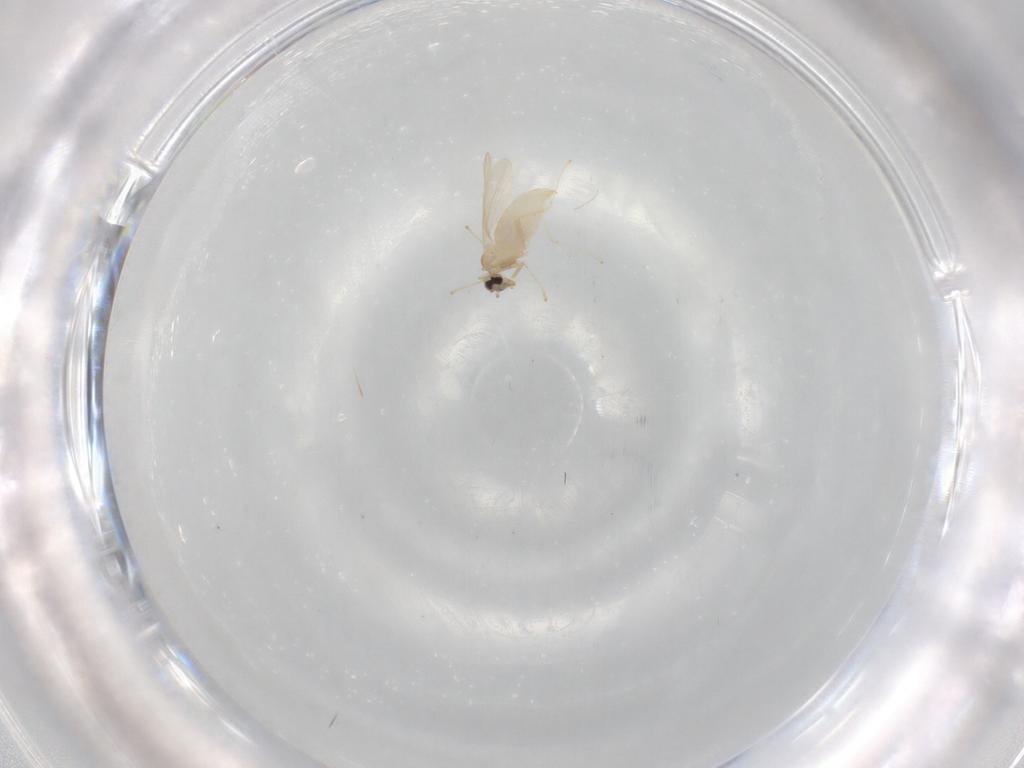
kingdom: Animalia
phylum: Arthropoda
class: Insecta
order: Diptera
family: Cecidomyiidae
